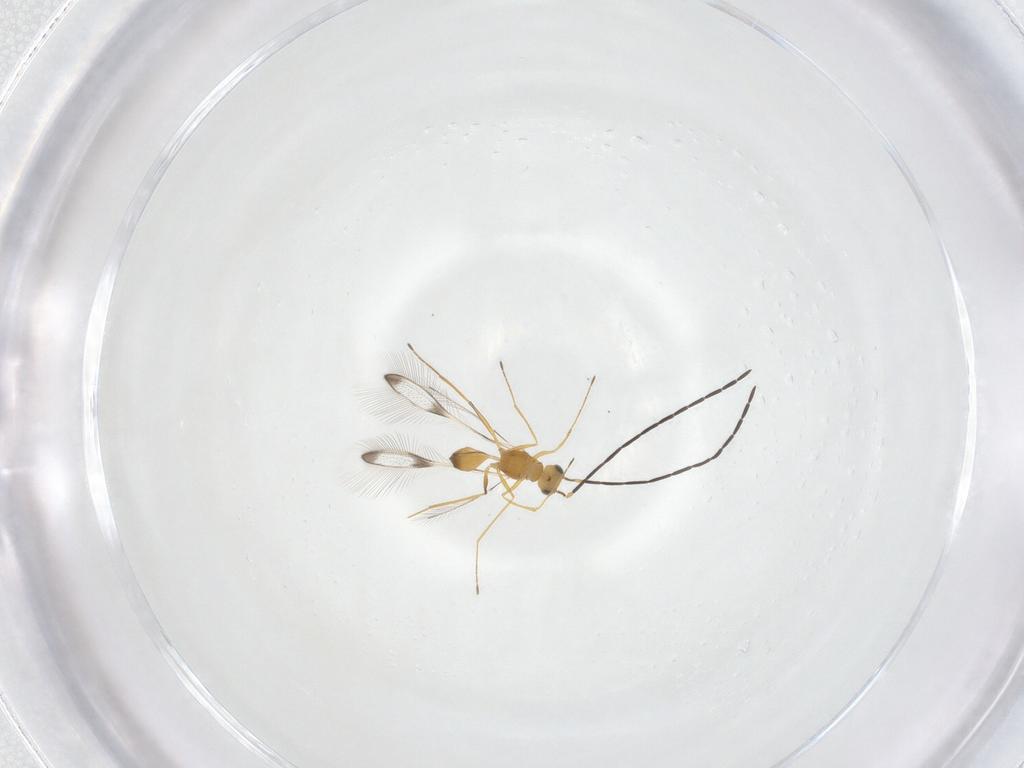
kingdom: Animalia
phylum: Arthropoda
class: Insecta
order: Hymenoptera
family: Mymaridae
